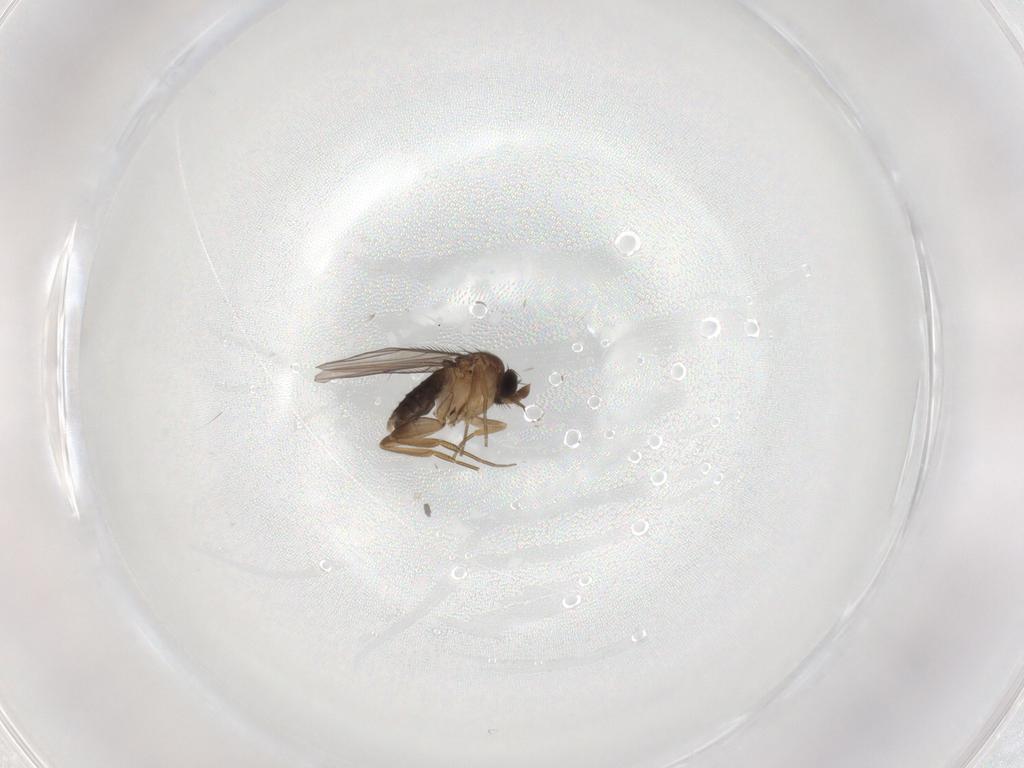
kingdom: Animalia
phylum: Arthropoda
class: Insecta
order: Diptera
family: Phoridae
